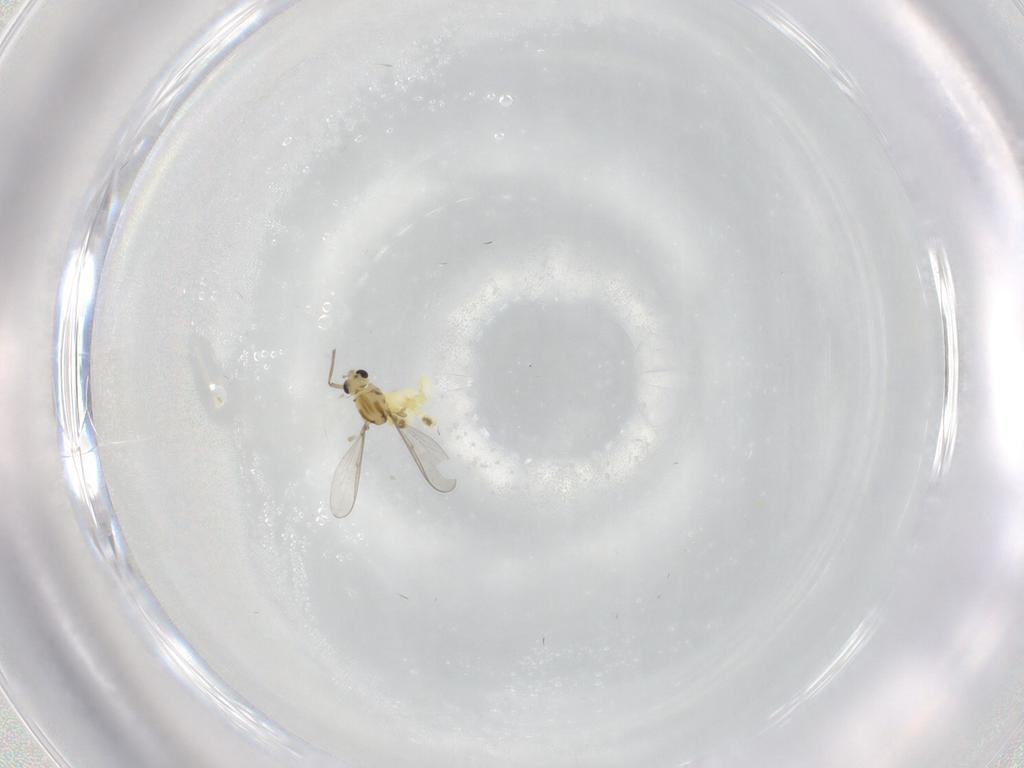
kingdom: Animalia
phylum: Arthropoda
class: Insecta
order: Diptera
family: Chironomidae
